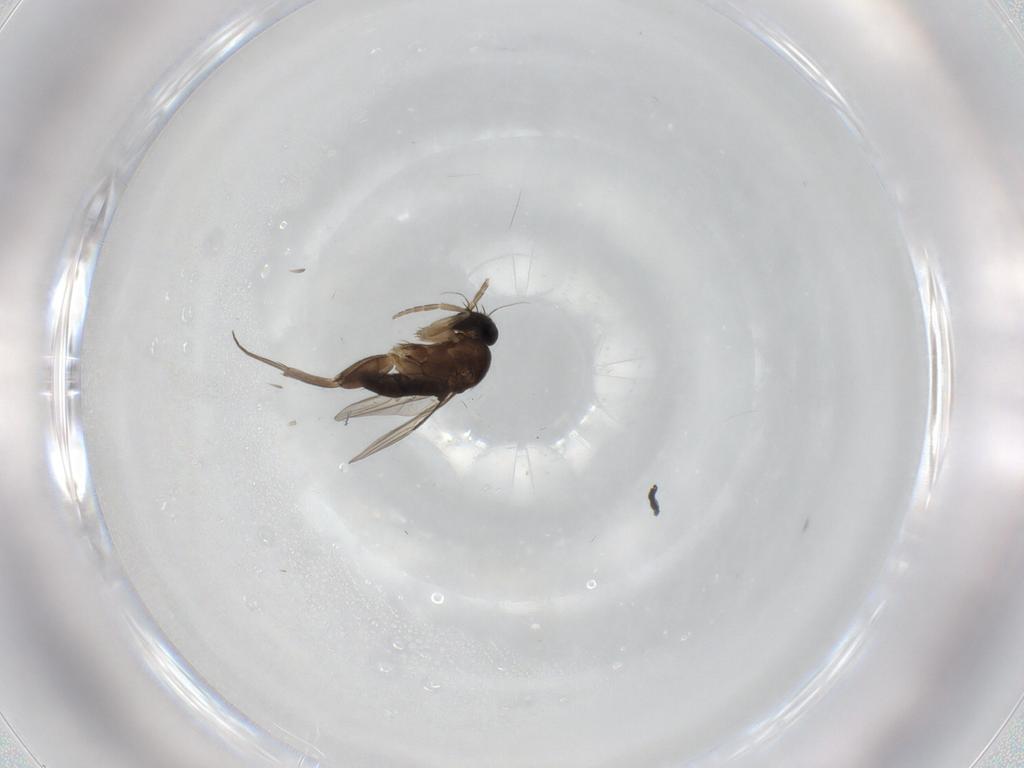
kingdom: Animalia
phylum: Arthropoda
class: Insecta
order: Diptera
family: Phoridae
